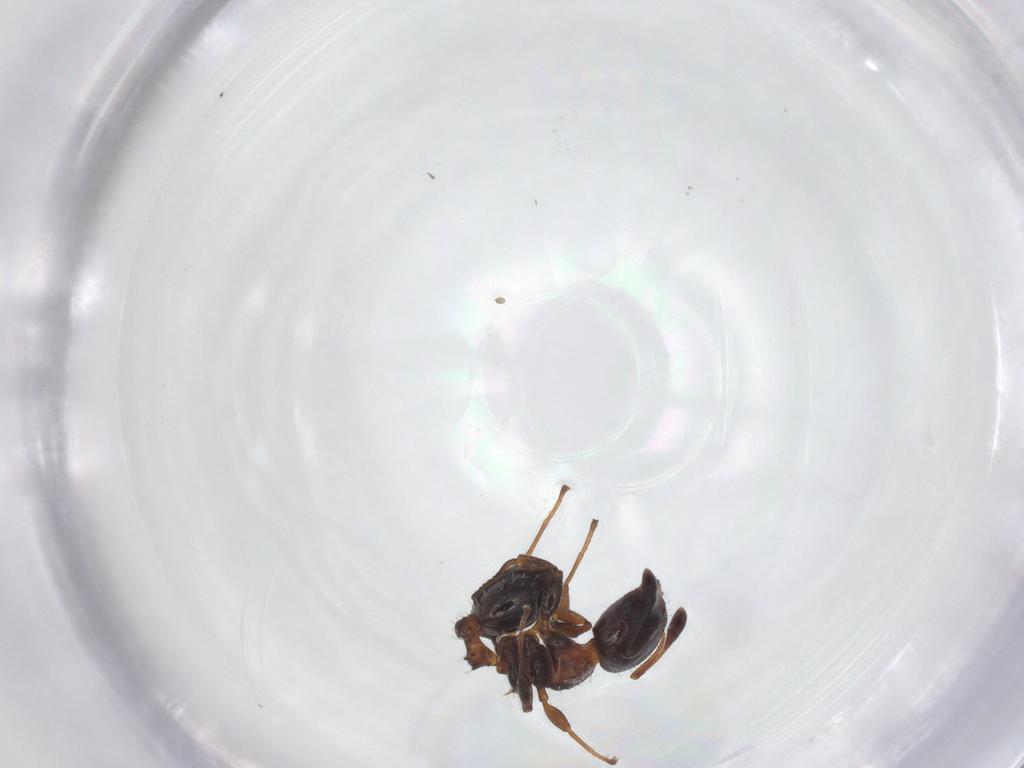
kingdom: Animalia
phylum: Arthropoda
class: Insecta
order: Hymenoptera
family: Formicidae
